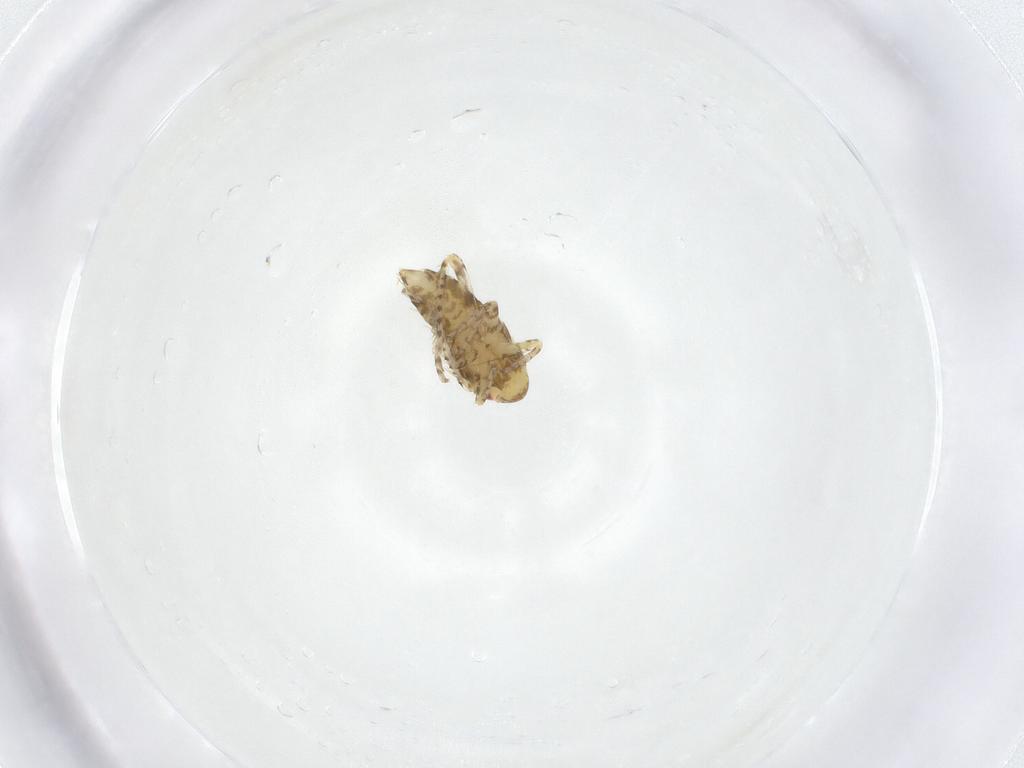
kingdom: Animalia
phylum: Arthropoda
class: Insecta
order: Hemiptera
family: Cicadellidae
